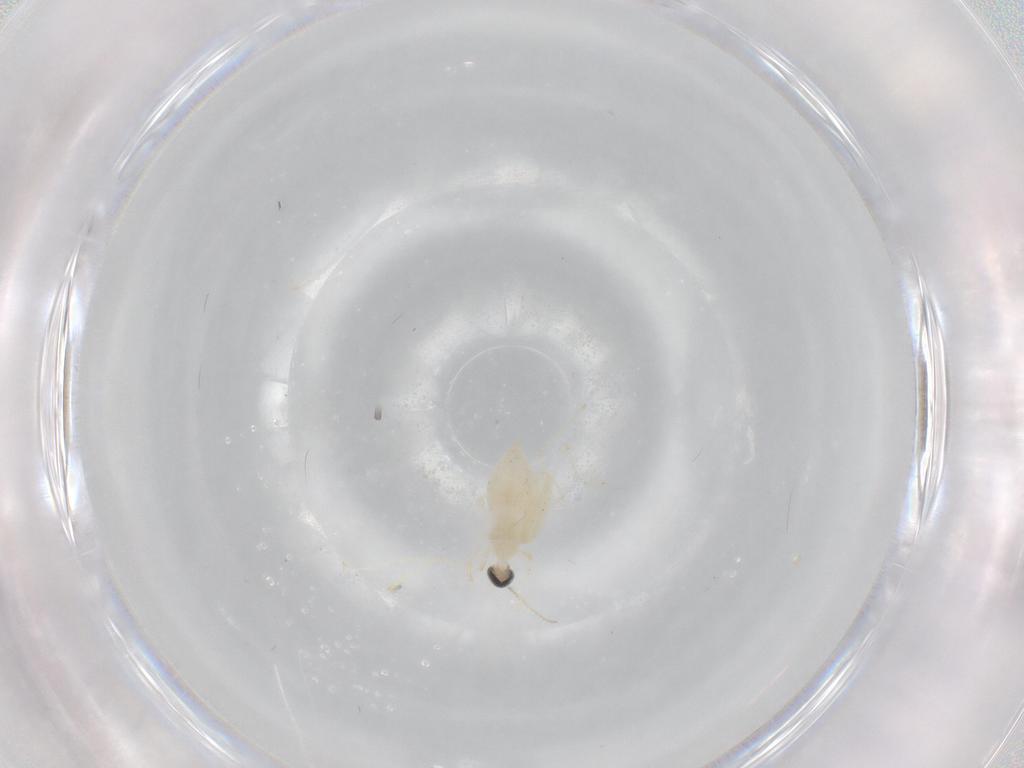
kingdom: Animalia
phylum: Arthropoda
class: Insecta
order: Diptera
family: Cecidomyiidae
